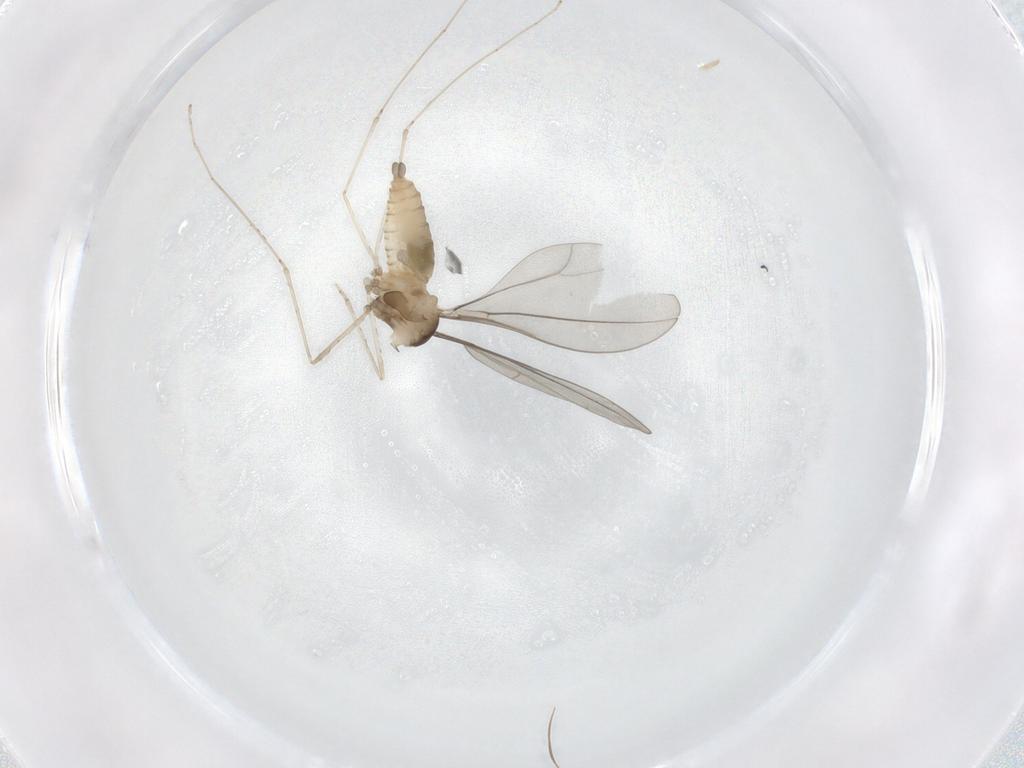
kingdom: Animalia
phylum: Arthropoda
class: Insecta
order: Diptera
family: Cecidomyiidae
